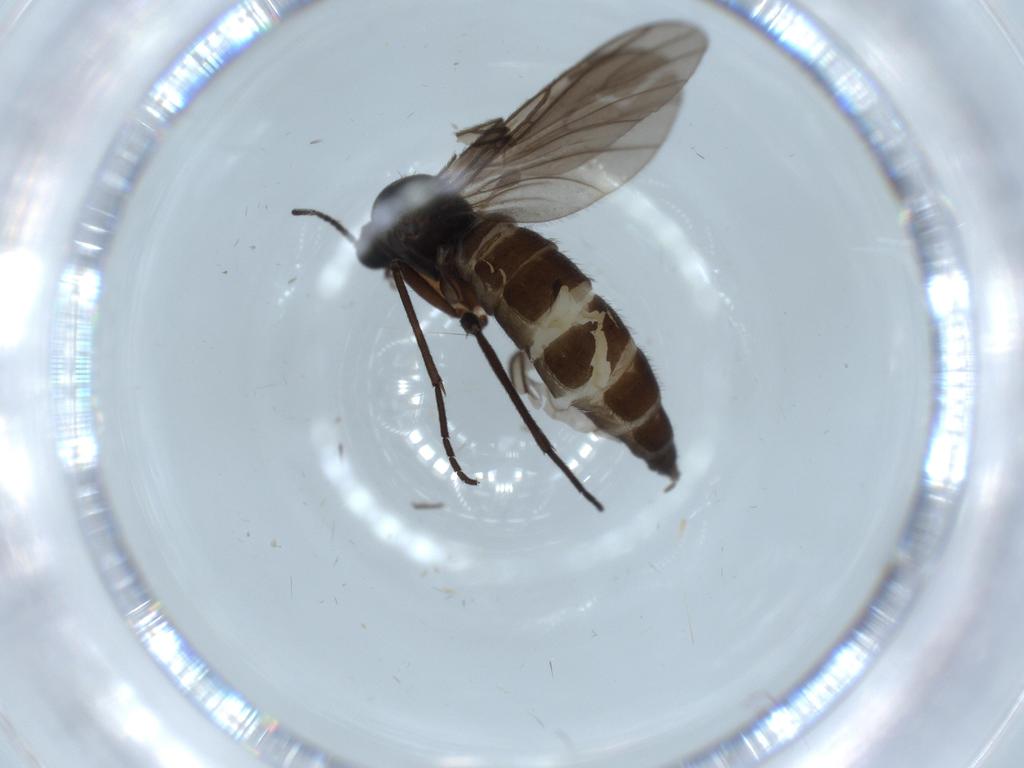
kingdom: Animalia
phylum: Arthropoda
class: Insecta
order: Diptera
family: Sciaridae
